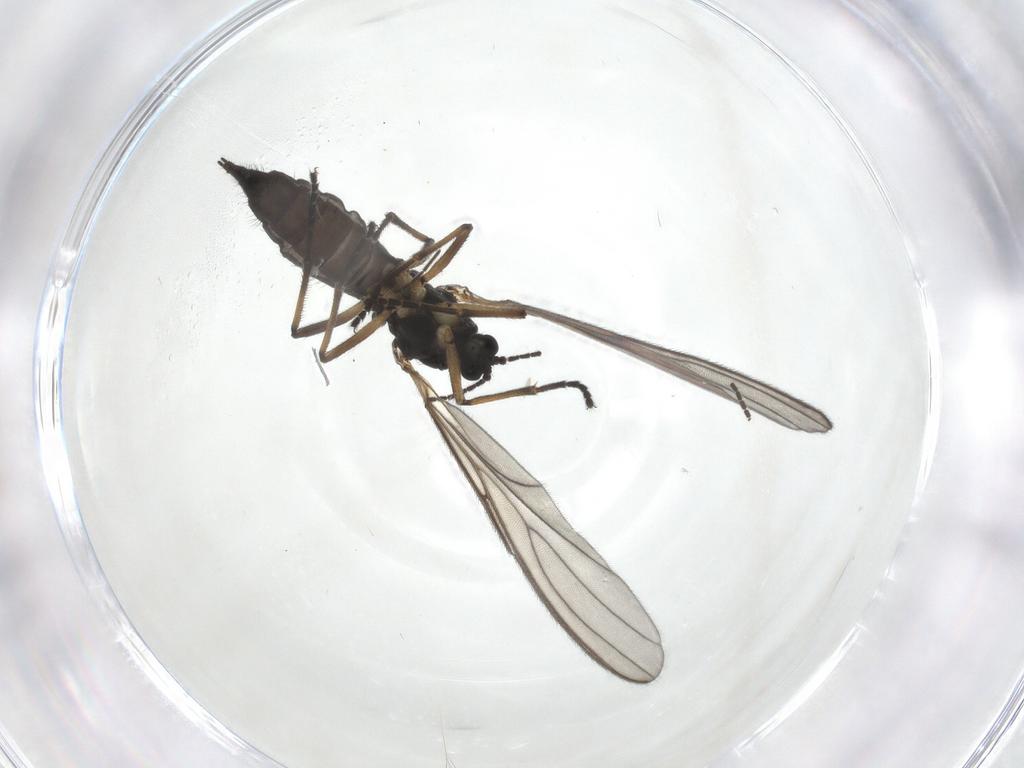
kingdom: Animalia
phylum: Arthropoda
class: Insecta
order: Diptera
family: Sciaridae
